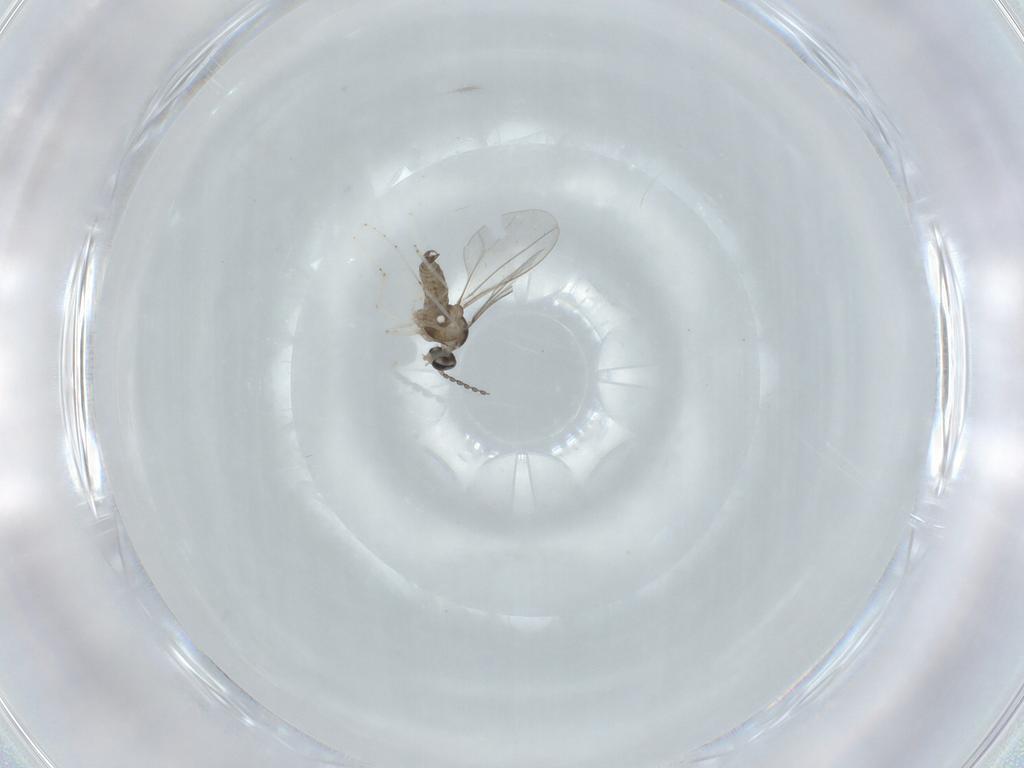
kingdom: Animalia
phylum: Arthropoda
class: Insecta
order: Diptera
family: Cecidomyiidae
